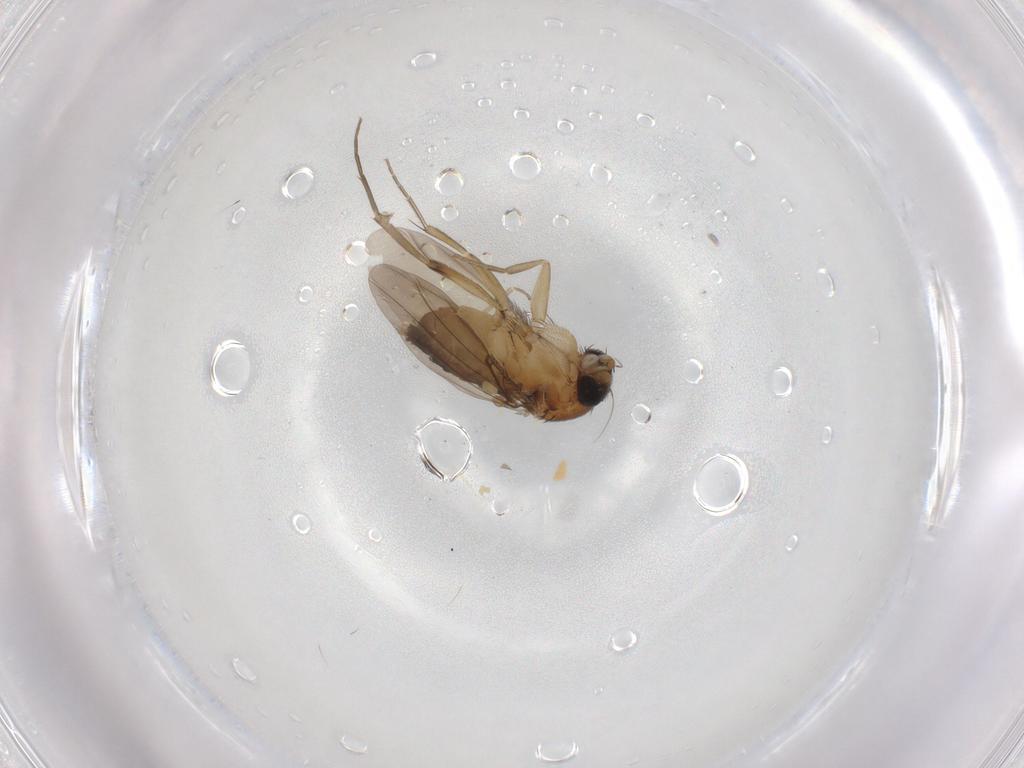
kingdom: Animalia
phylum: Arthropoda
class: Insecta
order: Diptera
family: Phoridae
